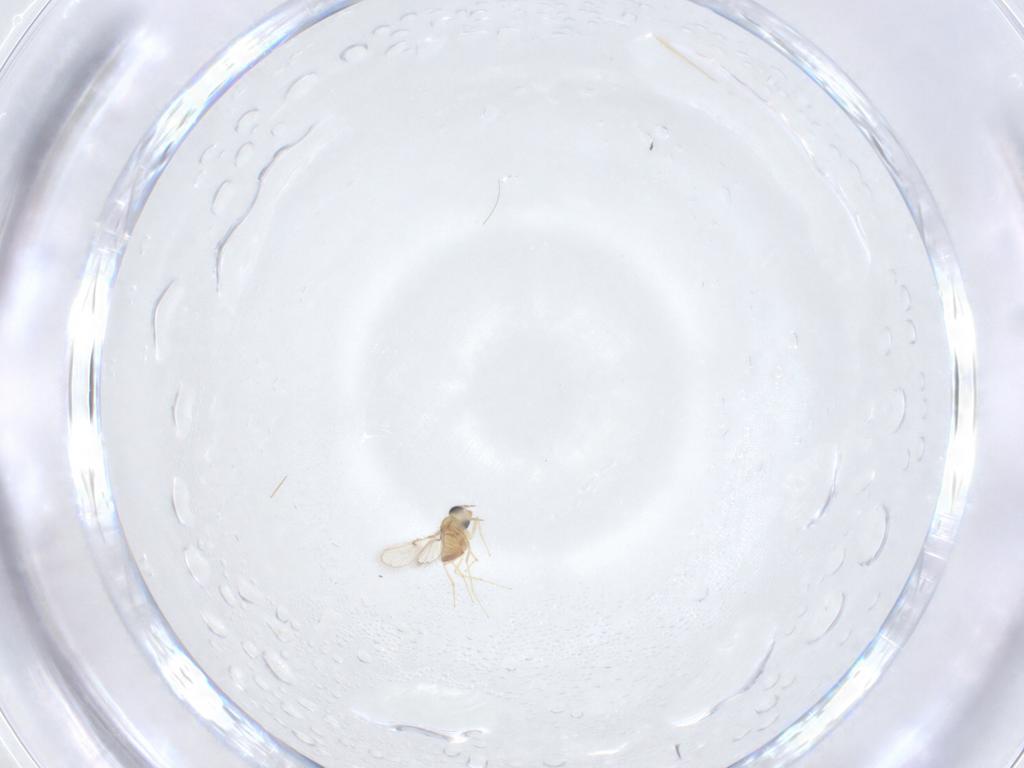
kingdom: Animalia
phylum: Arthropoda
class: Insecta
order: Hymenoptera
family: Trichogrammatidae
